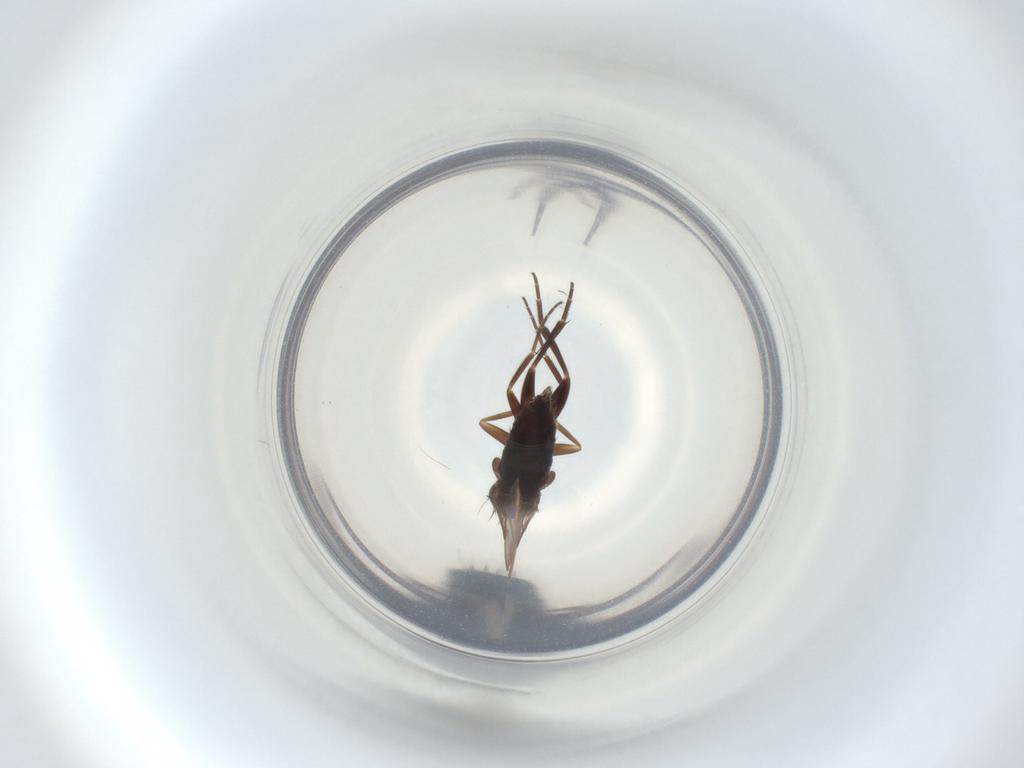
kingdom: Animalia
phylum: Arthropoda
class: Insecta
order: Diptera
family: Phoridae
